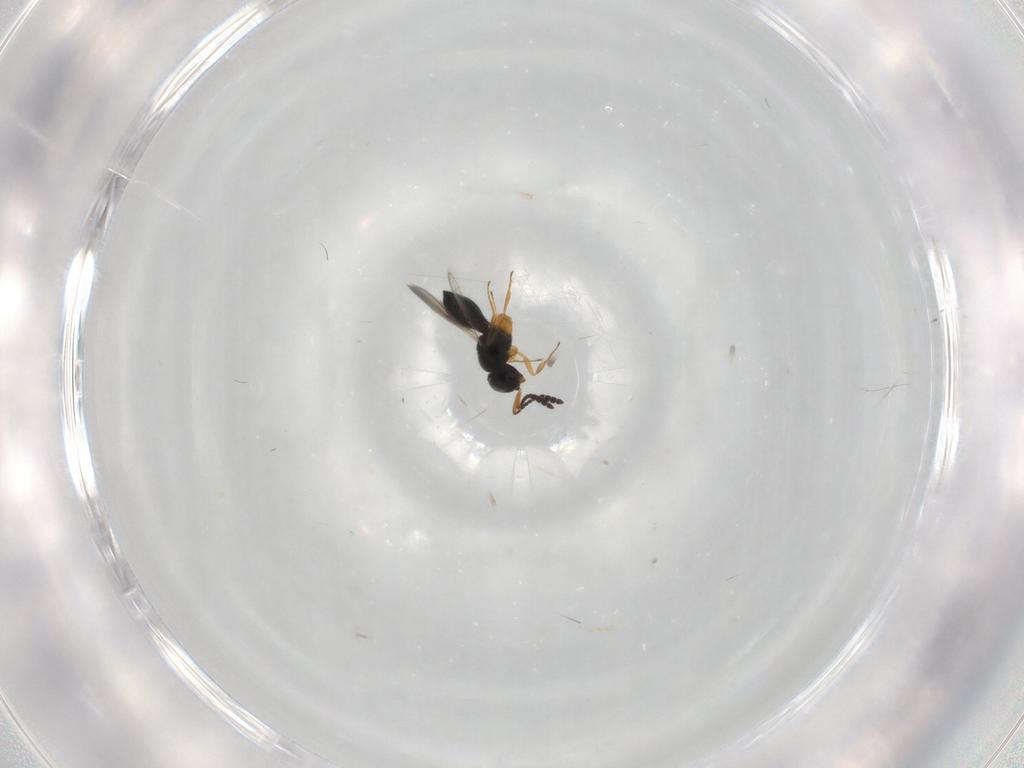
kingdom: Animalia
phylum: Arthropoda
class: Insecta
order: Hymenoptera
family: Scelionidae
